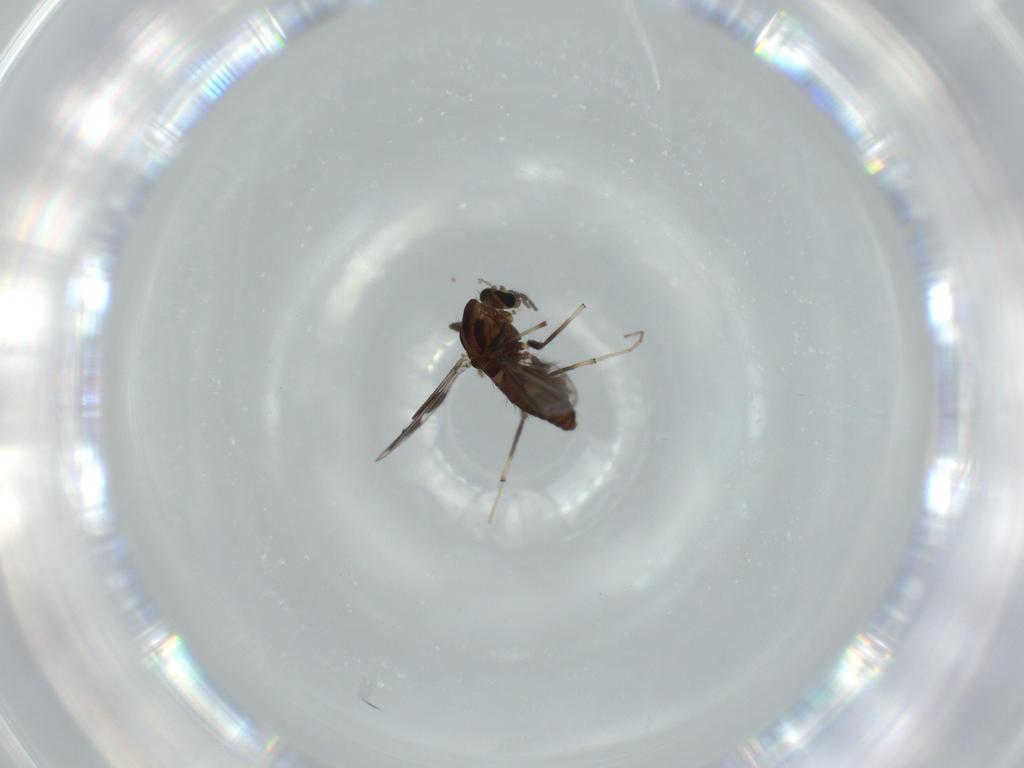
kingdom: Animalia
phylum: Arthropoda
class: Insecta
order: Diptera
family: Chironomidae
